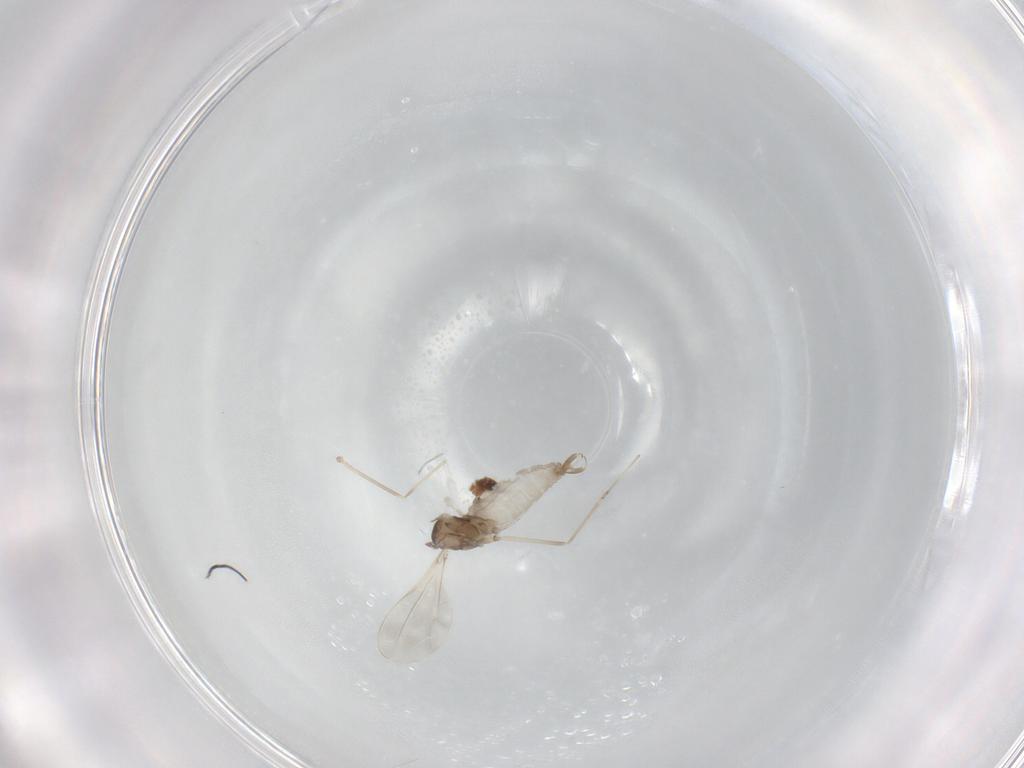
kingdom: Animalia
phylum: Arthropoda
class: Insecta
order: Diptera
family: Cecidomyiidae
